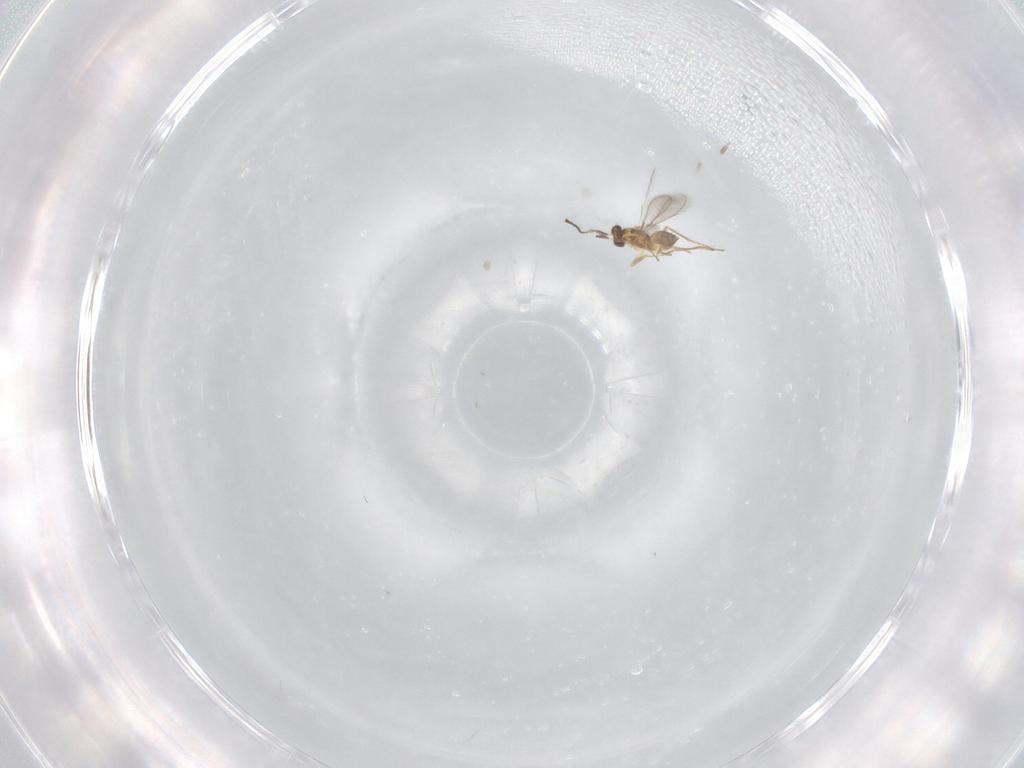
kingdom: Animalia
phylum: Arthropoda
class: Insecta
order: Hymenoptera
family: Mymaridae
